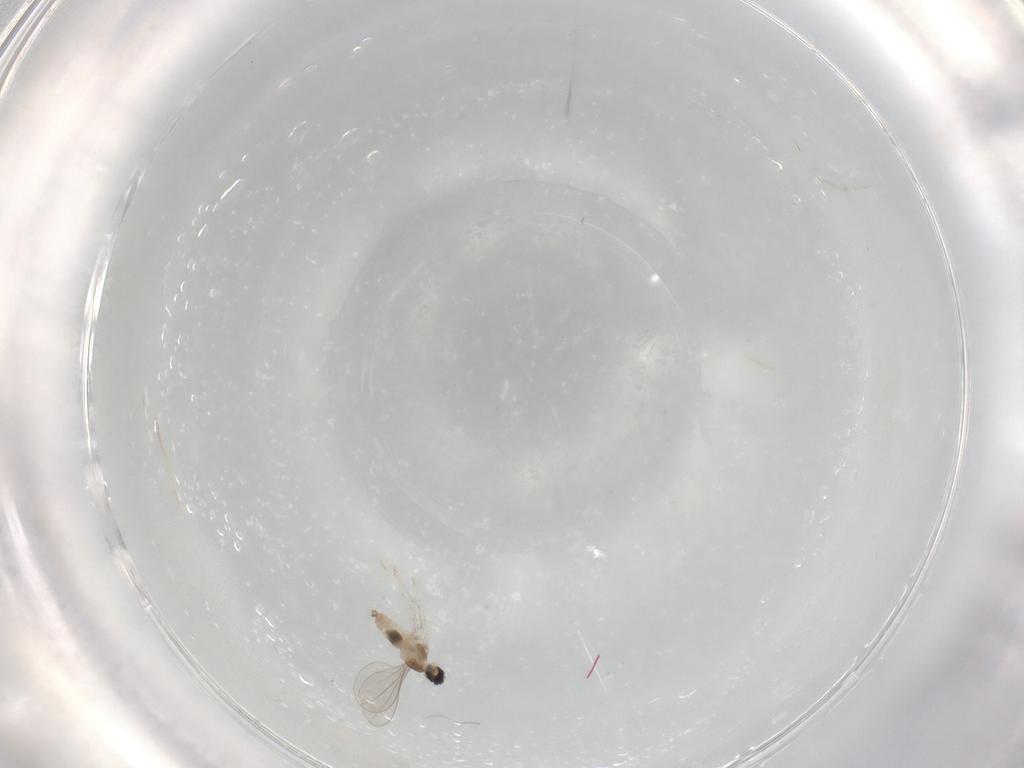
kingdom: Animalia
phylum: Arthropoda
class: Insecta
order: Diptera
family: Cecidomyiidae
